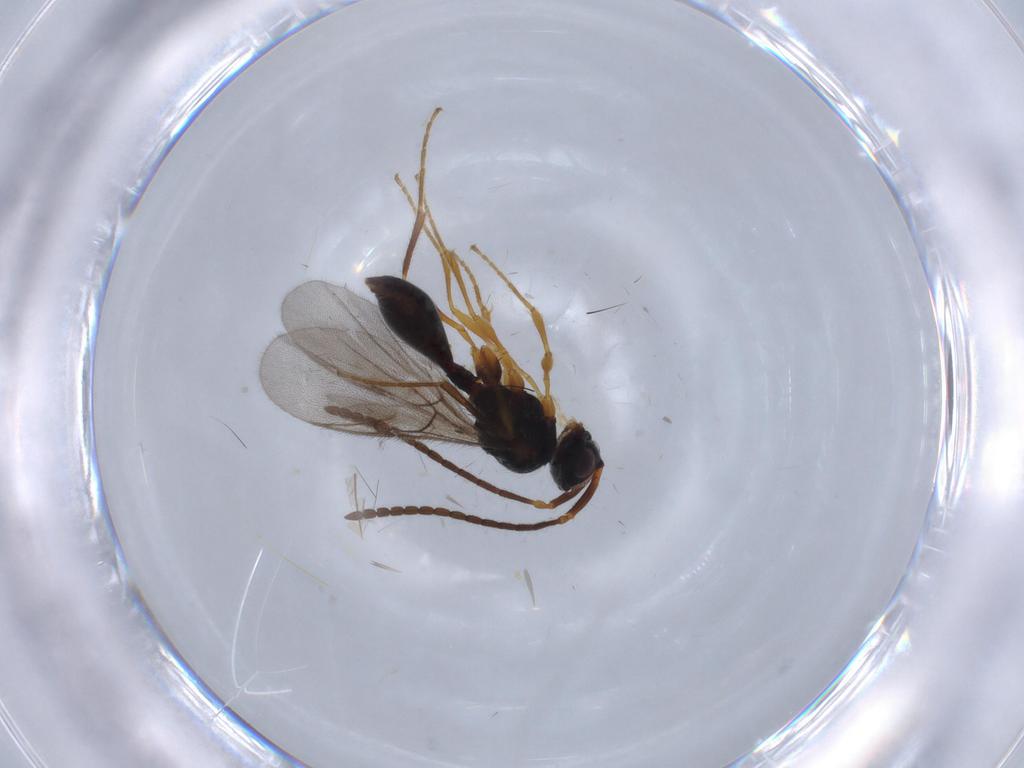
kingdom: Animalia
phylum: Arthropoda
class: Insecta
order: Hymenoptera
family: Diapriidae
